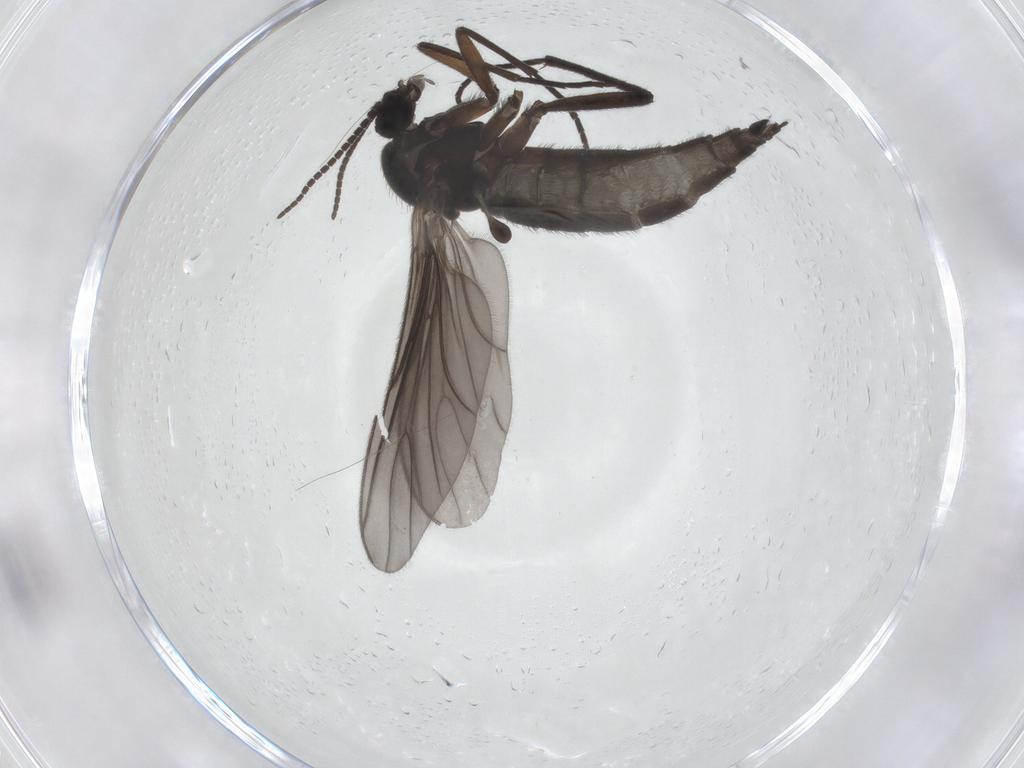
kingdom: Animalia
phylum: Arthropoda
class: Insecta
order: Diptera
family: Sciaridae
